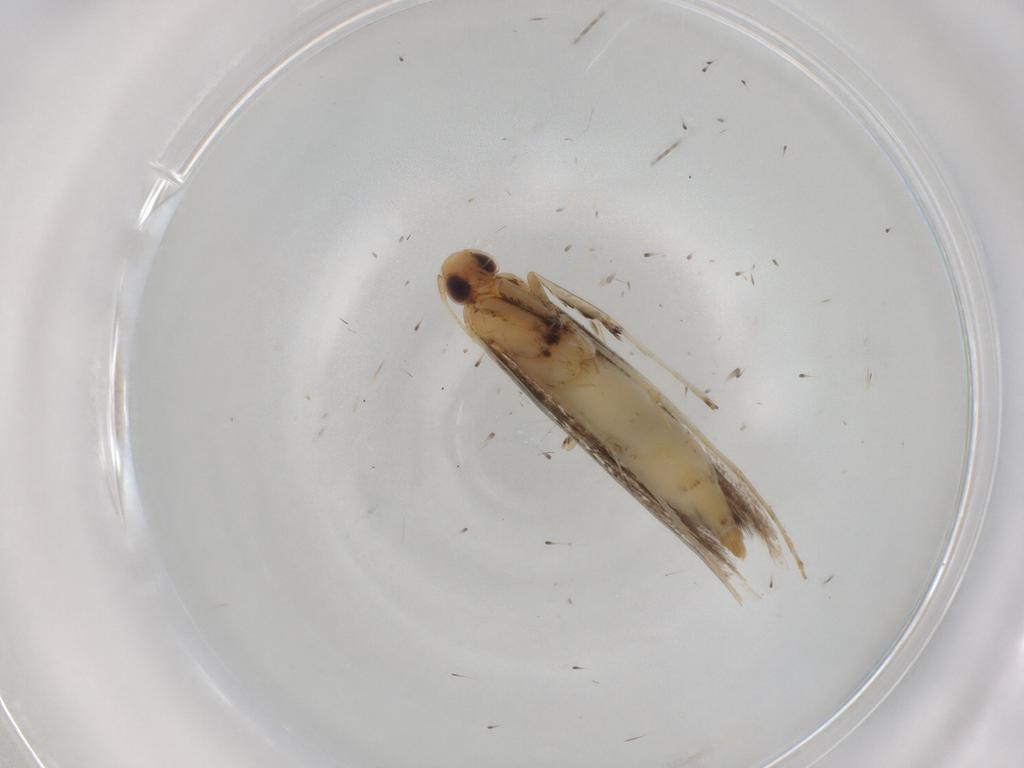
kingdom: Animalia
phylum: Arthropoda
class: Insecta
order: Lepidoptera
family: Gracillariidae
